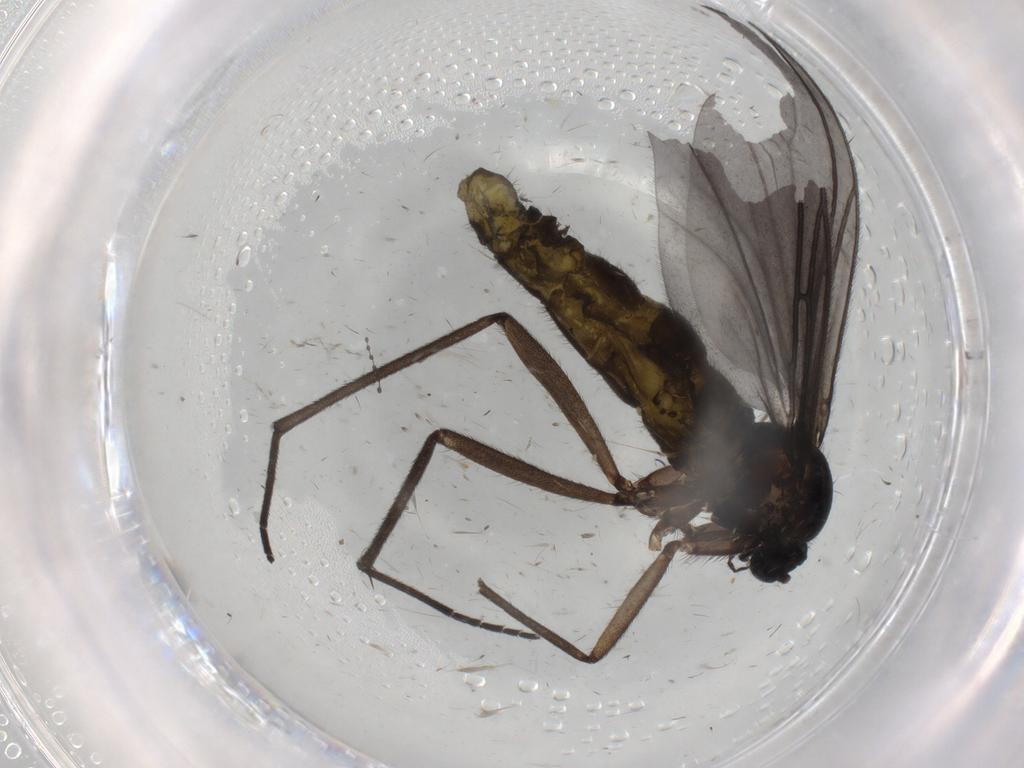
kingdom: Animalia
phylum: Arthropoda
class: Insecta
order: Diptera
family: Sciaridae
